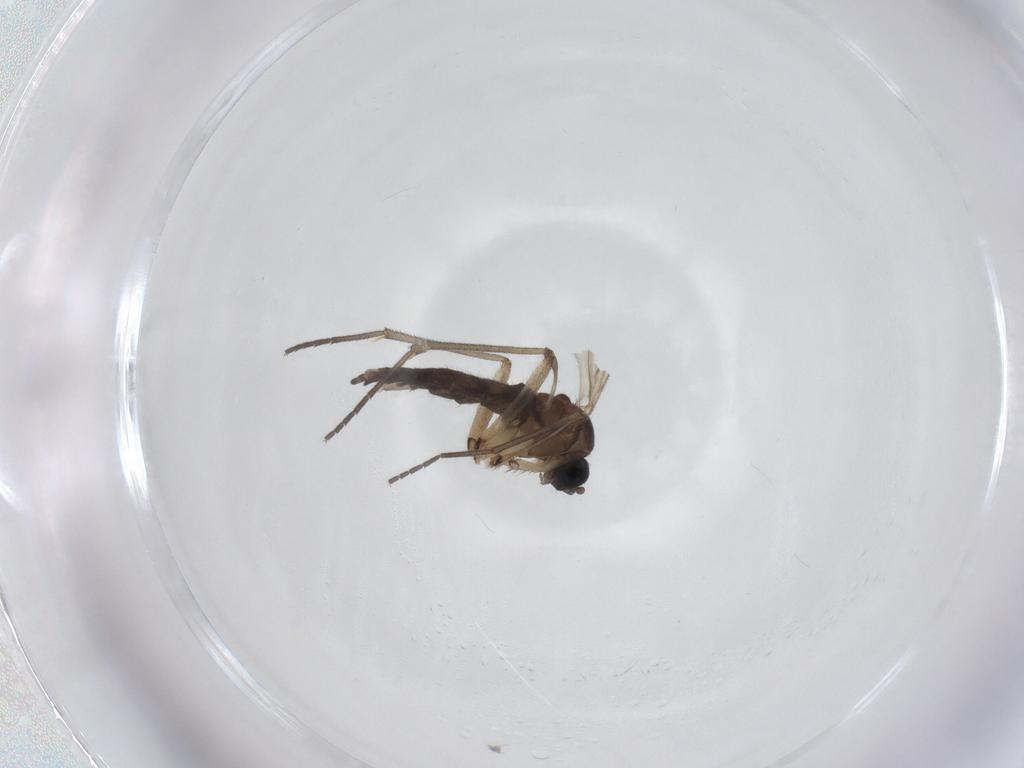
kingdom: Animalia
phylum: Arthropoda
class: Insecta
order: Diptera
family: Sciaridae
